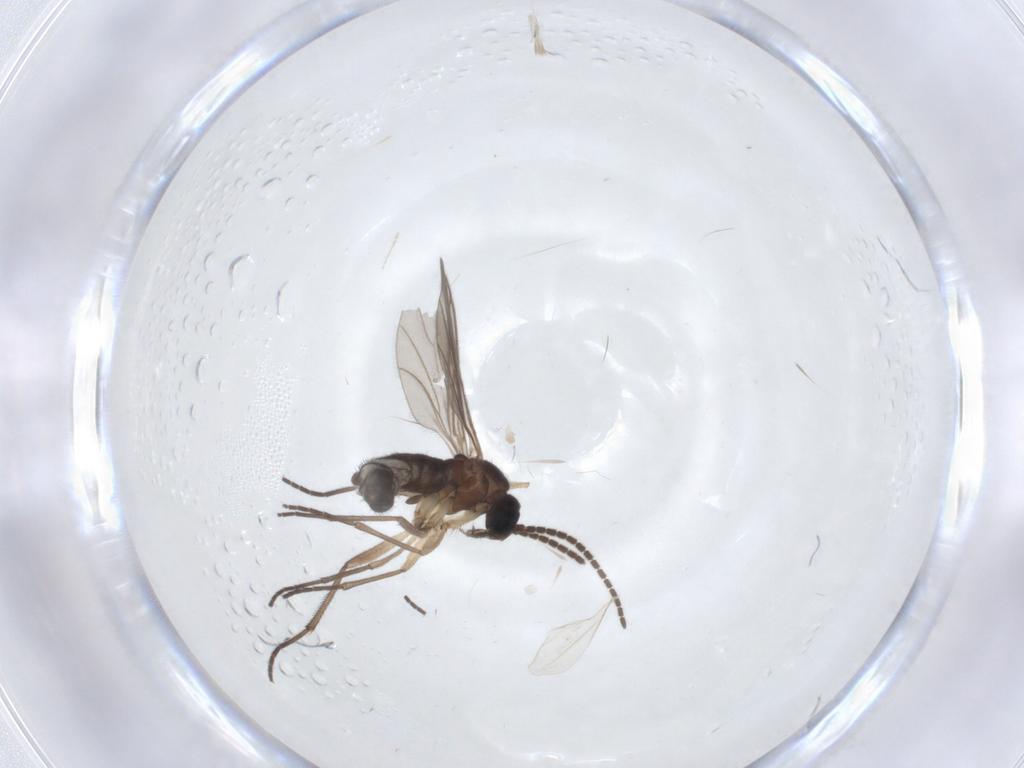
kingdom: Animalia
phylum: Arthropoda
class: Insecta
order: Diptera
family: Sciaridae
